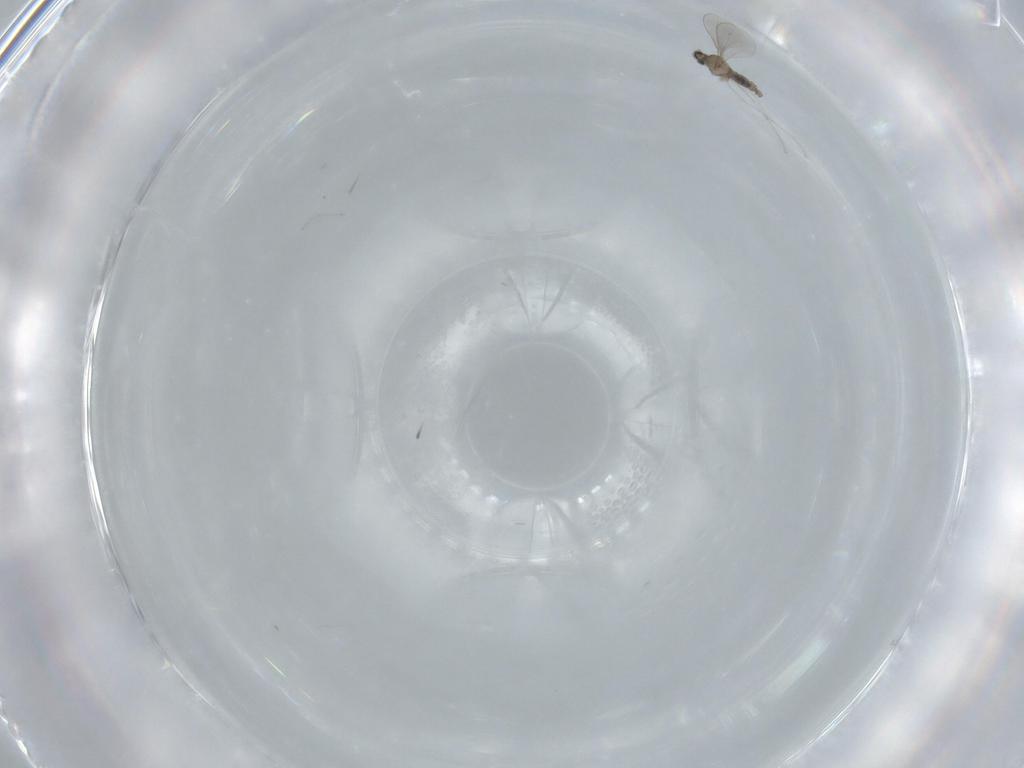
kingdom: Animalia
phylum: Arthropoda
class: Insecta
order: Diptera
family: Cecidomyiidae
